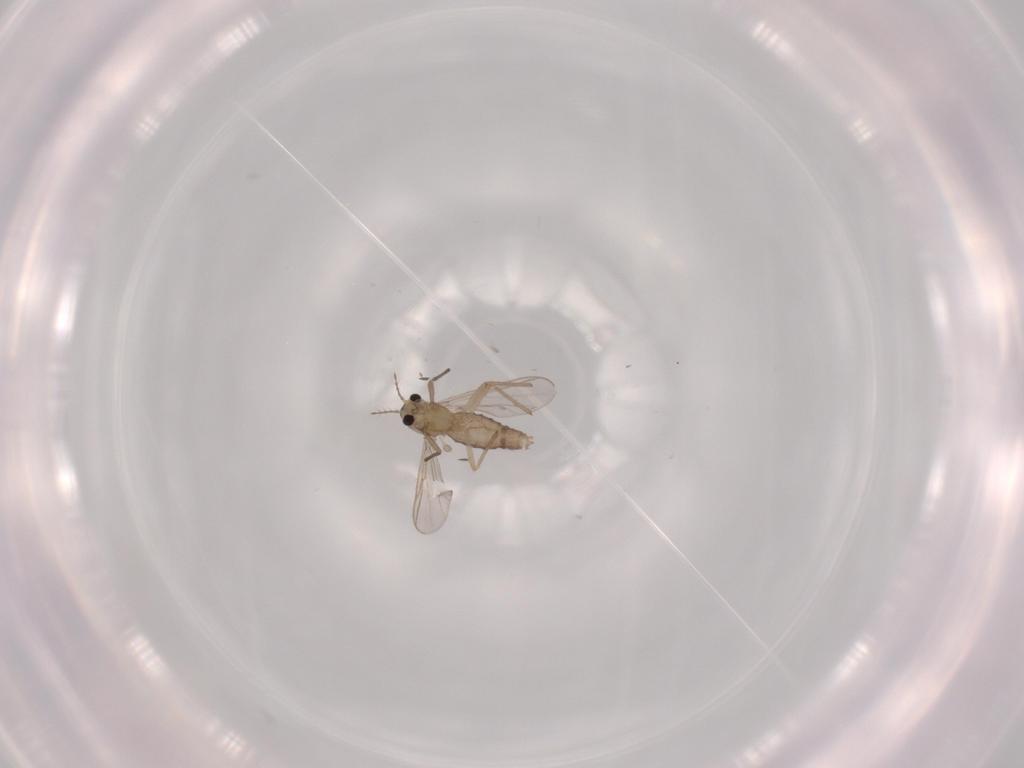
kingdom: Animalia
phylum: Arthropoda
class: Insecta
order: Diptera
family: Chironomidae
